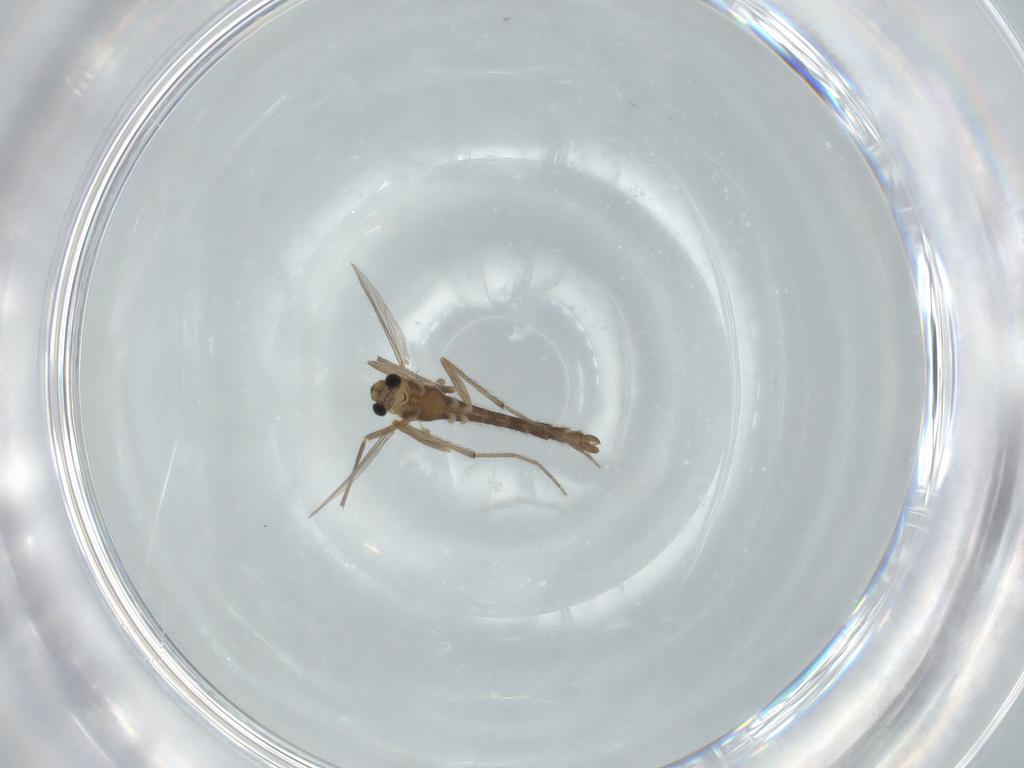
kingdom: Animalia
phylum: Arthropoda
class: Insecta
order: Diptera
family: Chironomidae
